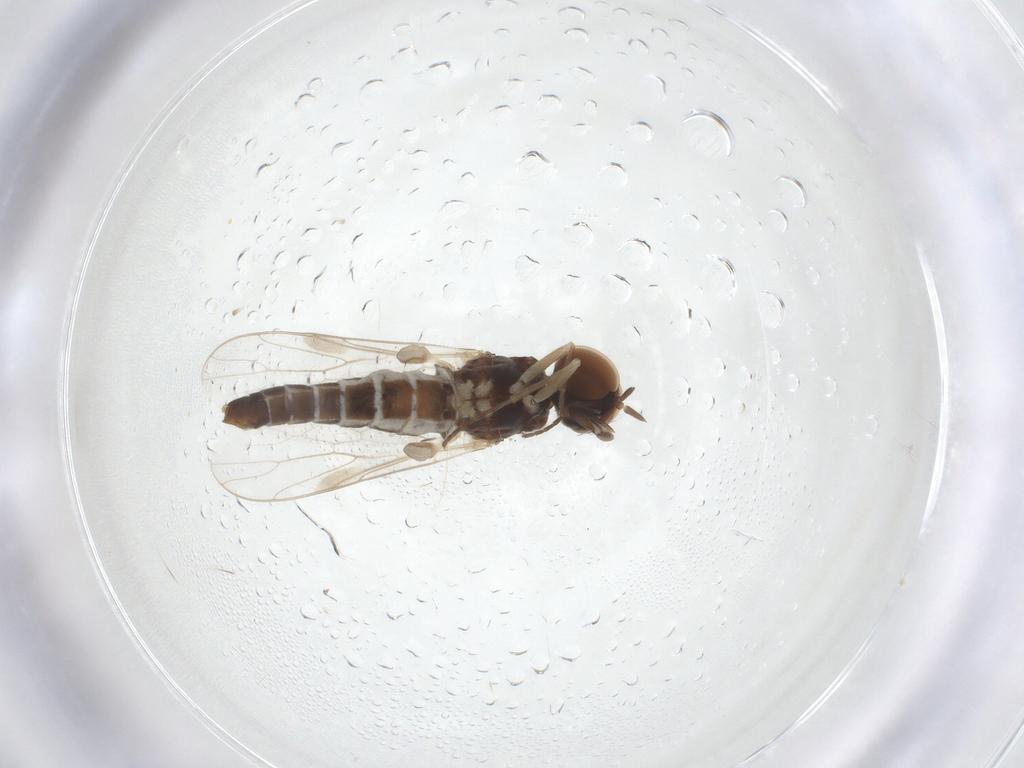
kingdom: Animalia
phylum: Arthropoda
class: Insecta
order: Diptera
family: Scenopinidae
